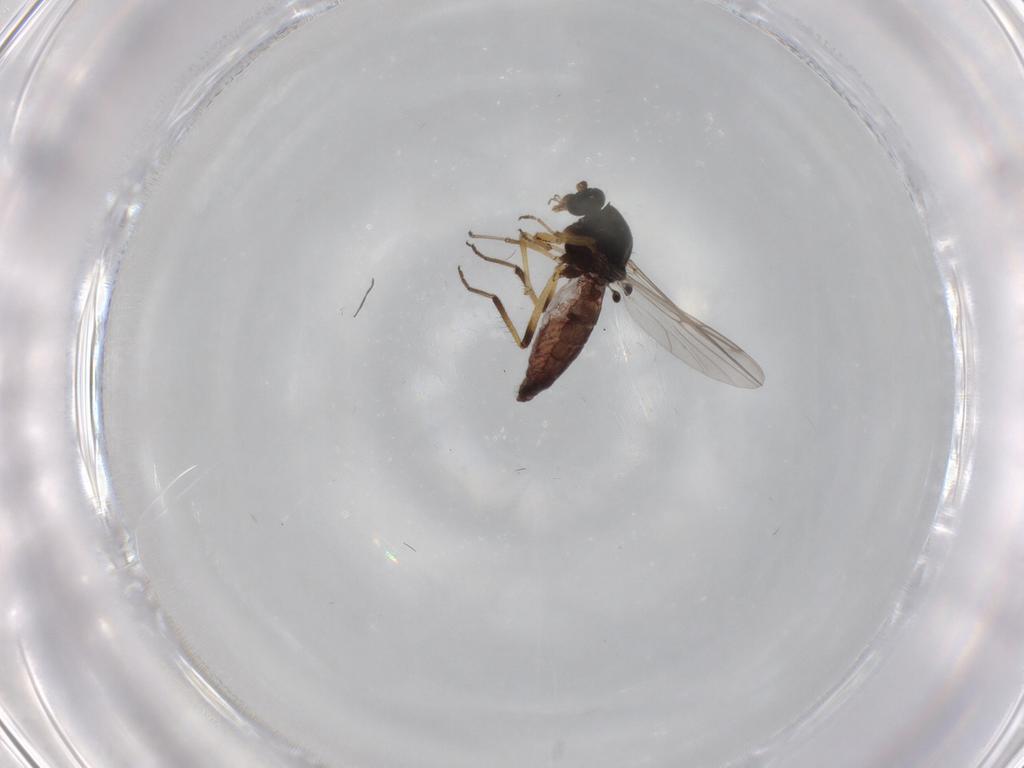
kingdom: Animalia
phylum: Arthropoda
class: Insecta
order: Diptera
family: Ceratopogonidae
